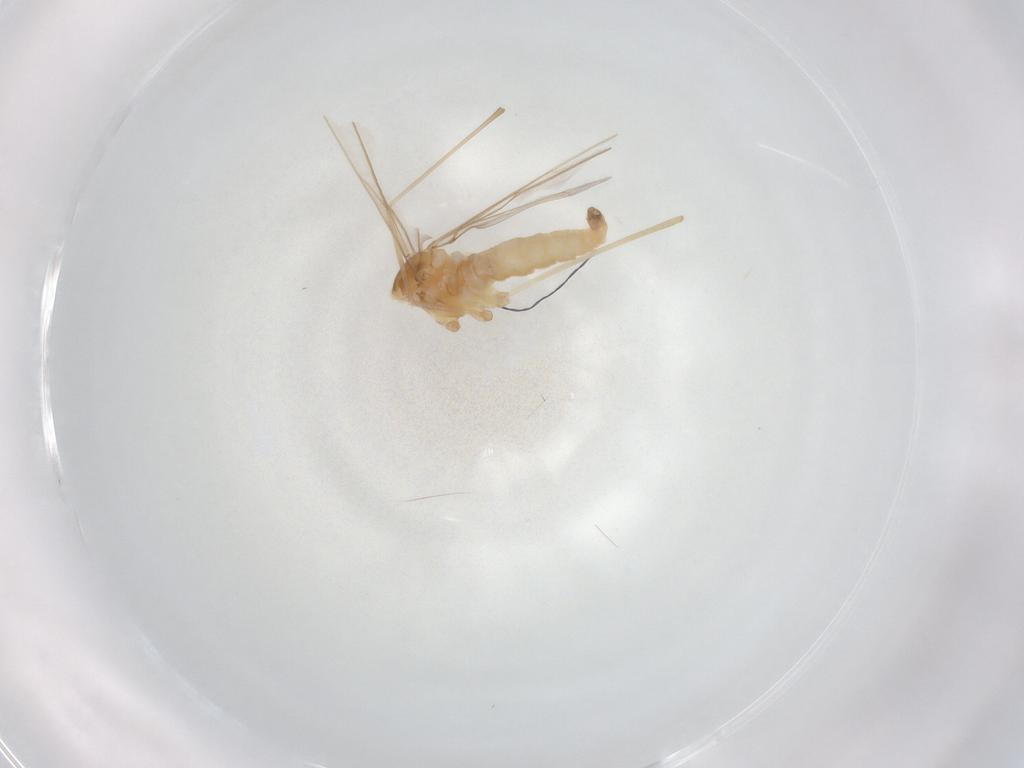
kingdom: Animalia
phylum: Arthropoda
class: Insecta
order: Diptera
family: Cecidomyiidae
